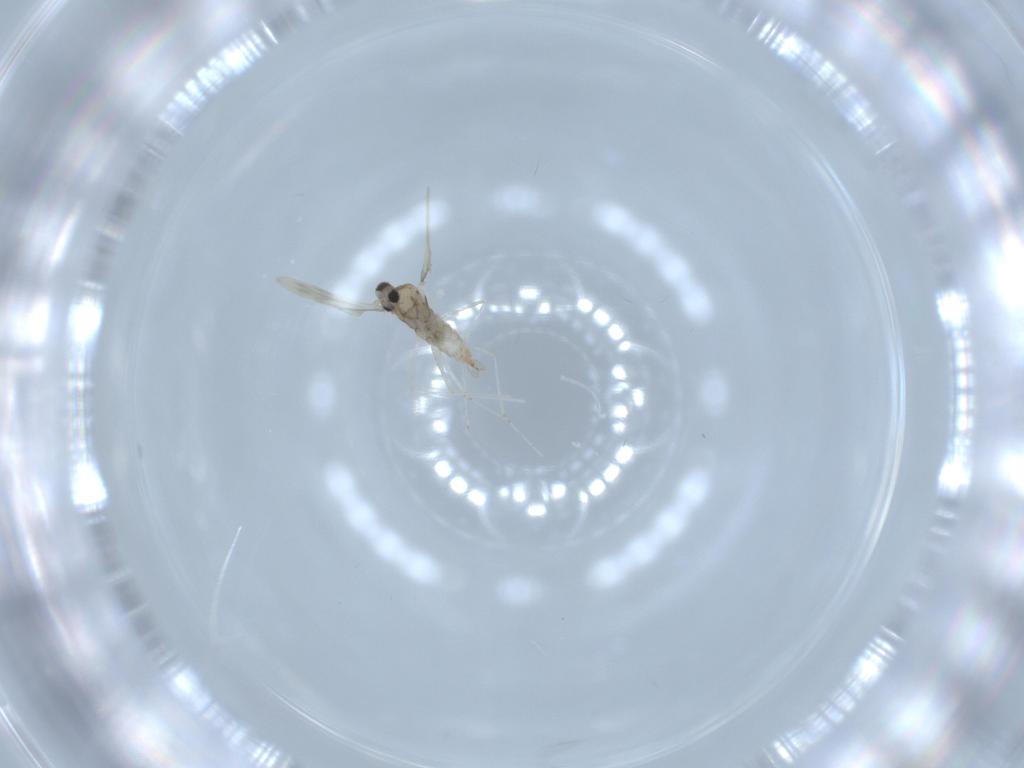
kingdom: Animalia
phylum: Arthropoda
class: Insecta
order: Diptera
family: Cecidomyiidae
